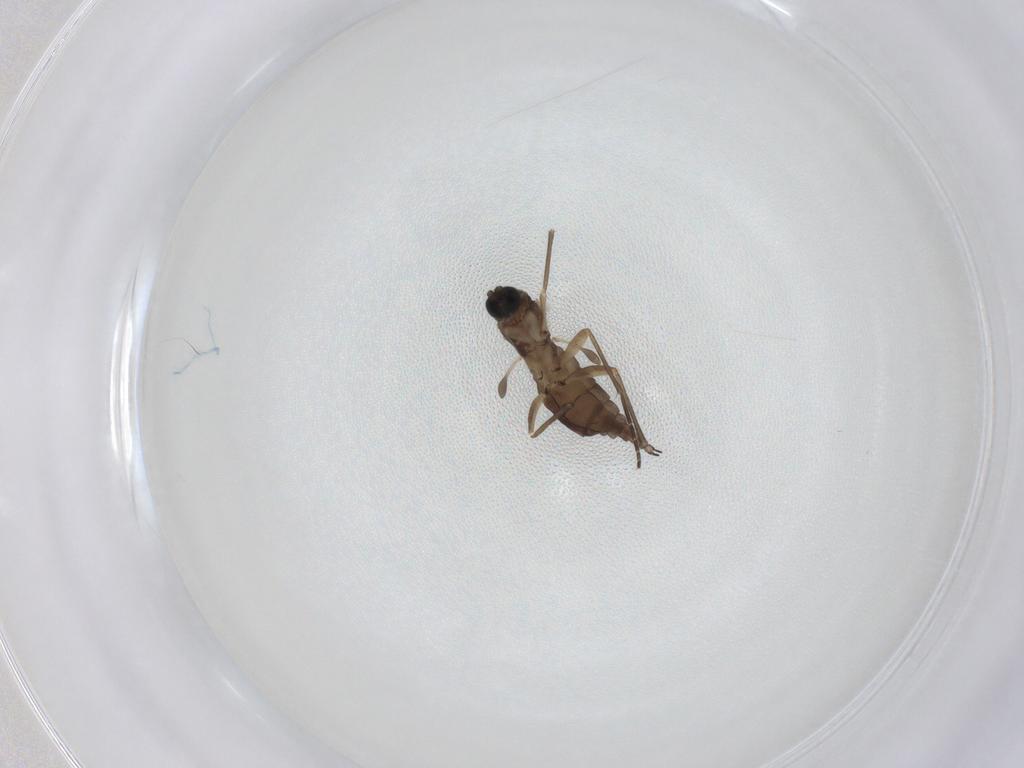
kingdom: Animalia
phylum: Arthropoda
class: Insecta
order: Diptera
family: Sciaridae
